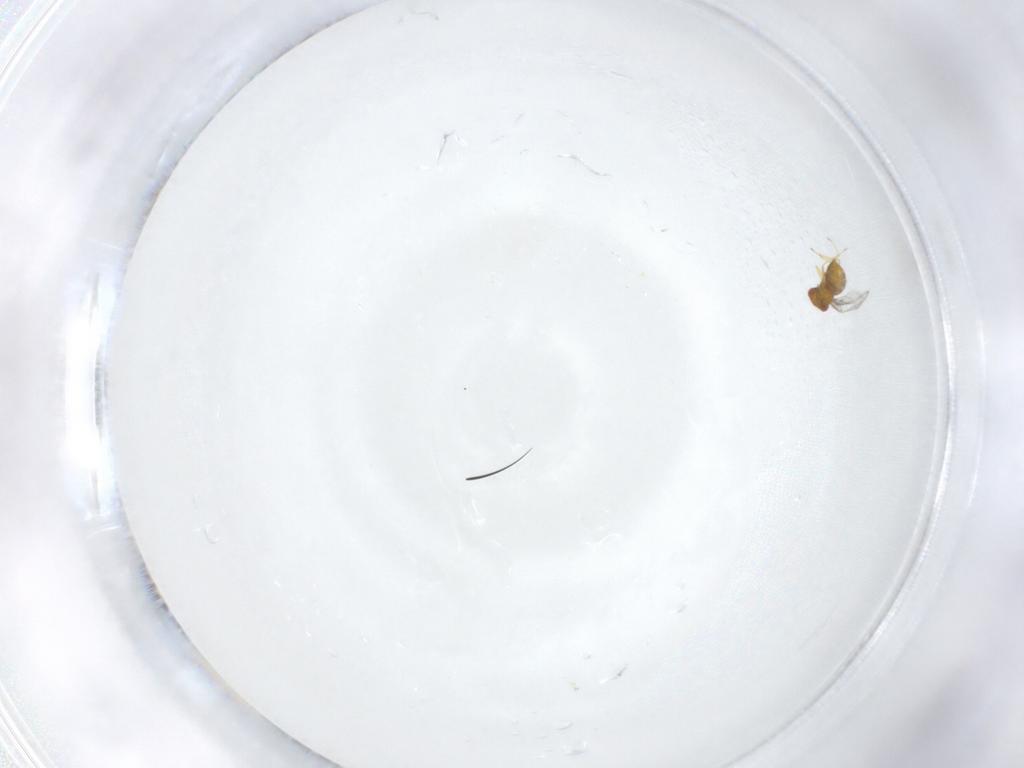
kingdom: Animalia
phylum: Arthropoda
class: Insecta
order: Hymenoptera
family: Trichogrammatidae
